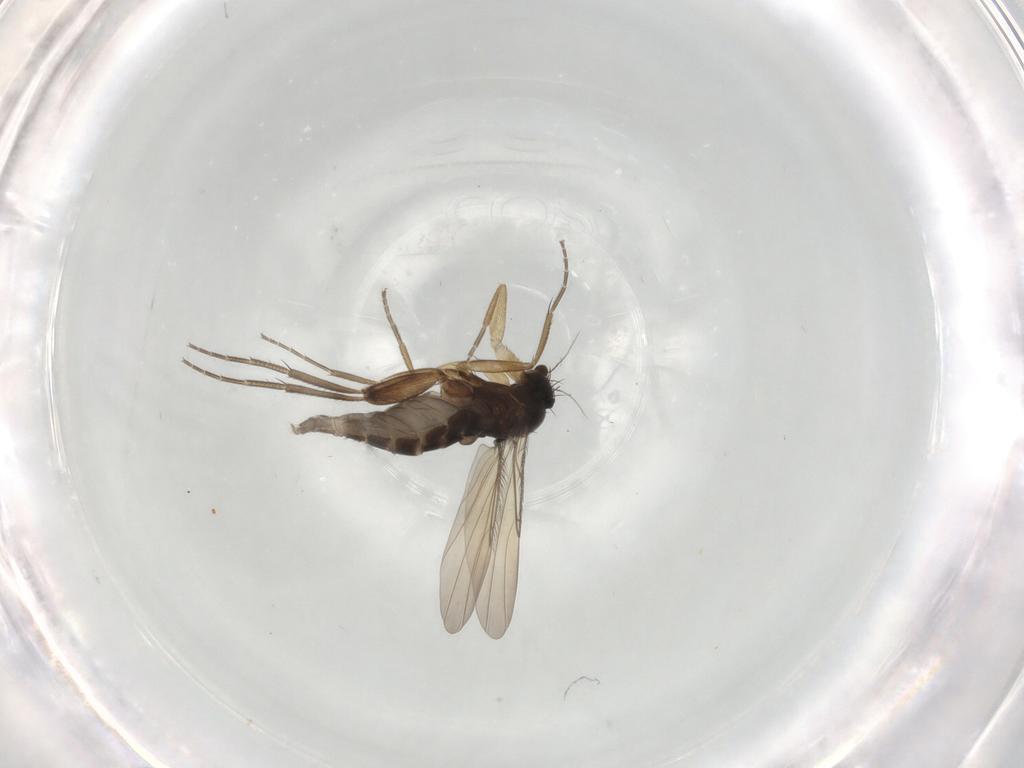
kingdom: Animalia
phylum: Arthropoda
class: Insecta
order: Diptera
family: Phoridae
